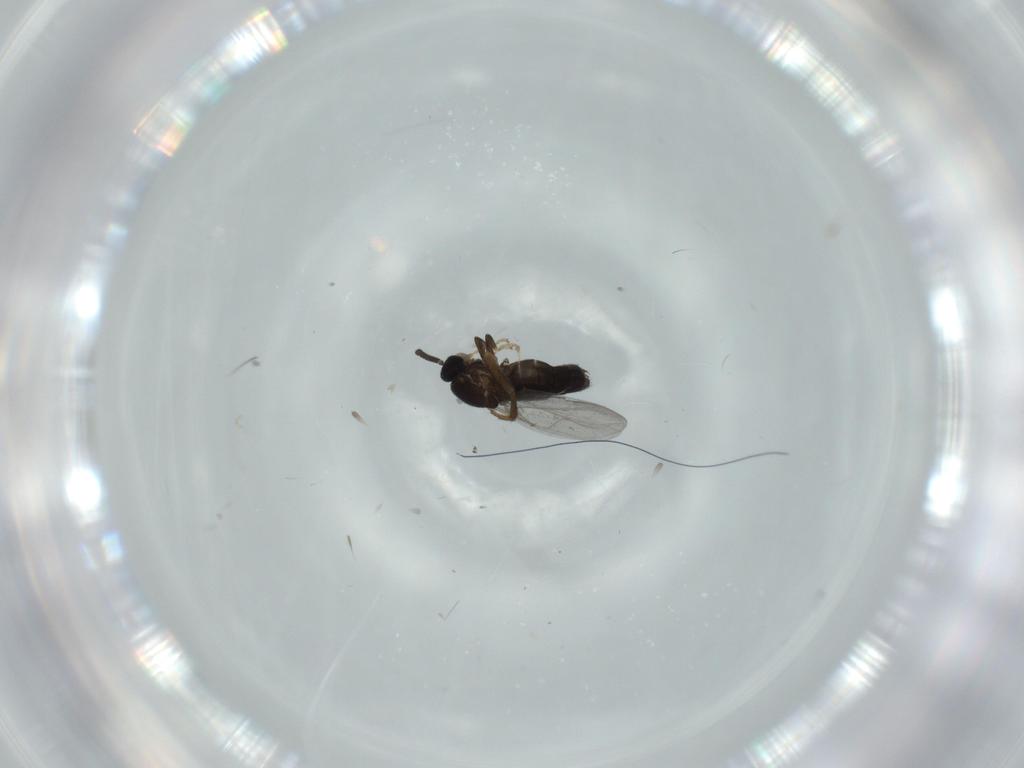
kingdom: Animalia
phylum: Arthropoda
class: Insecta
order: Diptera
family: Scatopsidae
